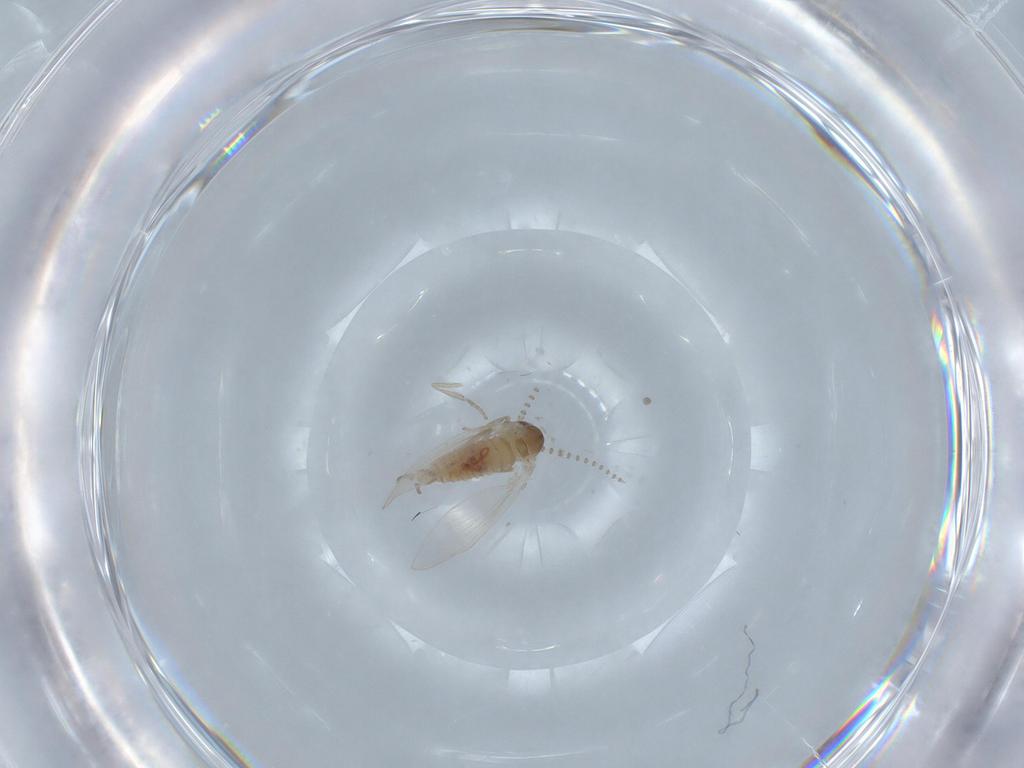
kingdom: Animalia
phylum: Arthropoda
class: Insecta
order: Diptera
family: Psychodidae
